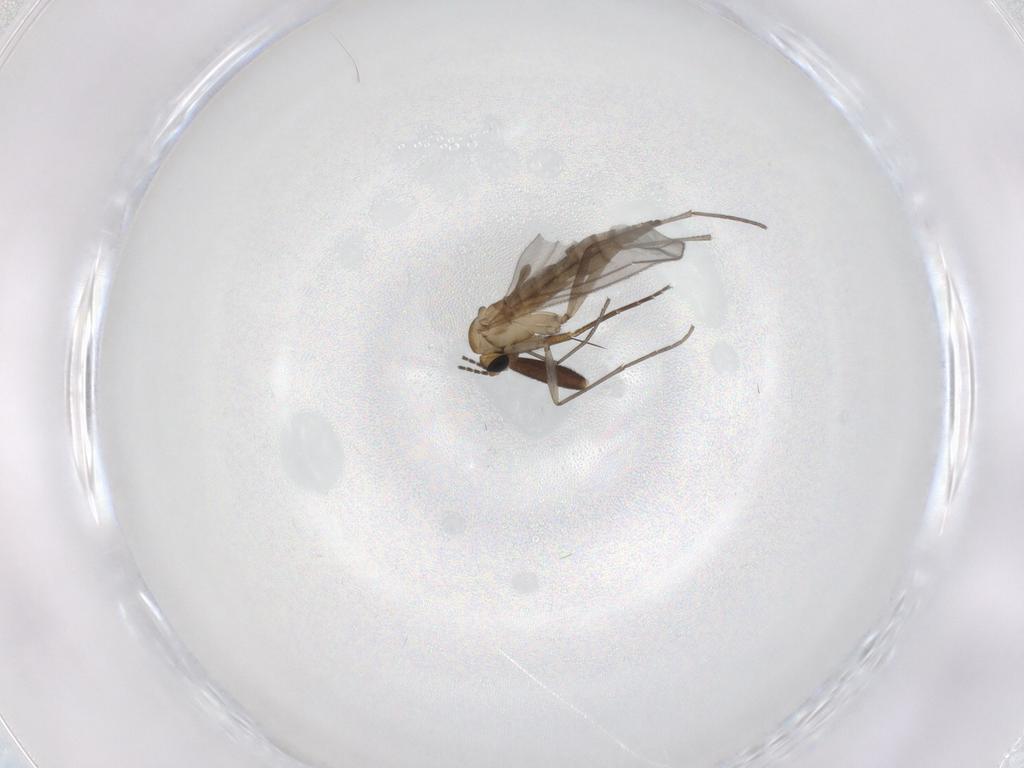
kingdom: Animalia
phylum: Arthropoda
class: Insecta
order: Diptera
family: Sciaridae
